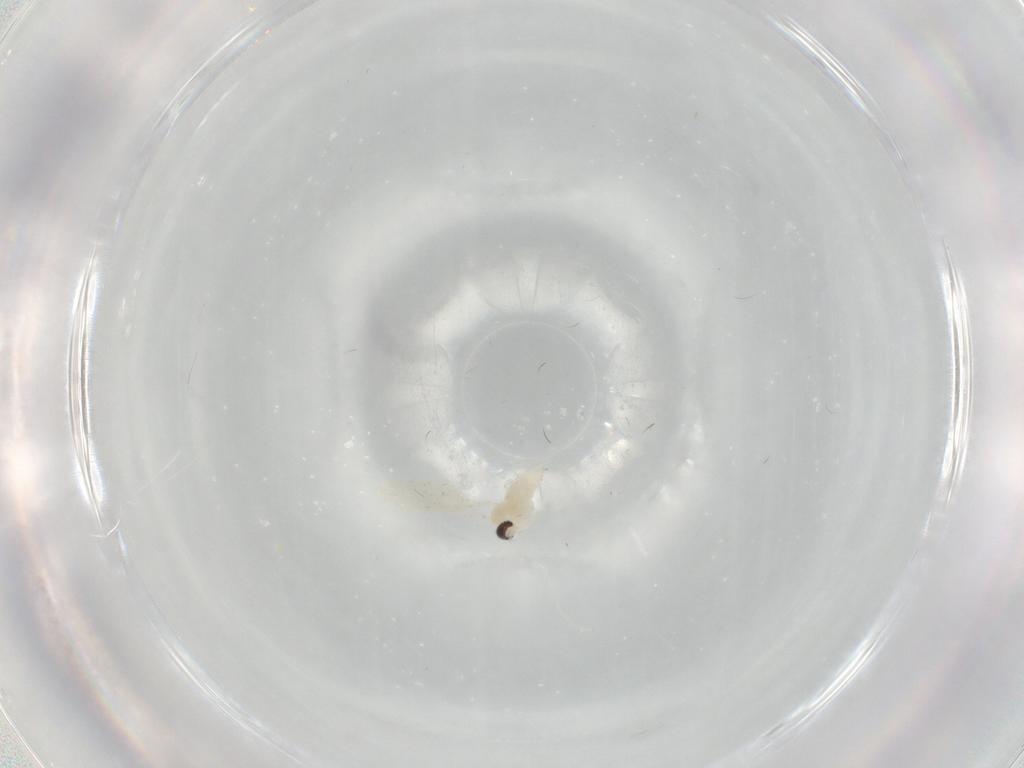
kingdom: Animalia
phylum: Arthropoda
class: Insecta
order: Diptera
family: Cecidomyiidae
